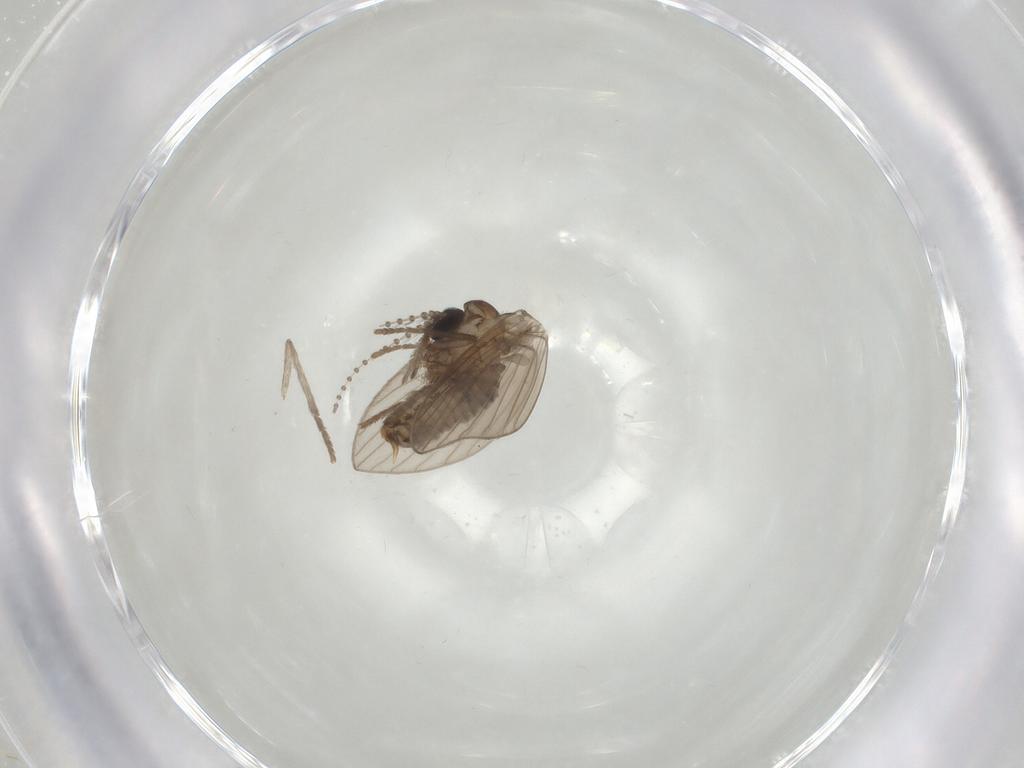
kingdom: Animalia
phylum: Arthropoda
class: Insecta
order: Diptera
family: Psychodidae
